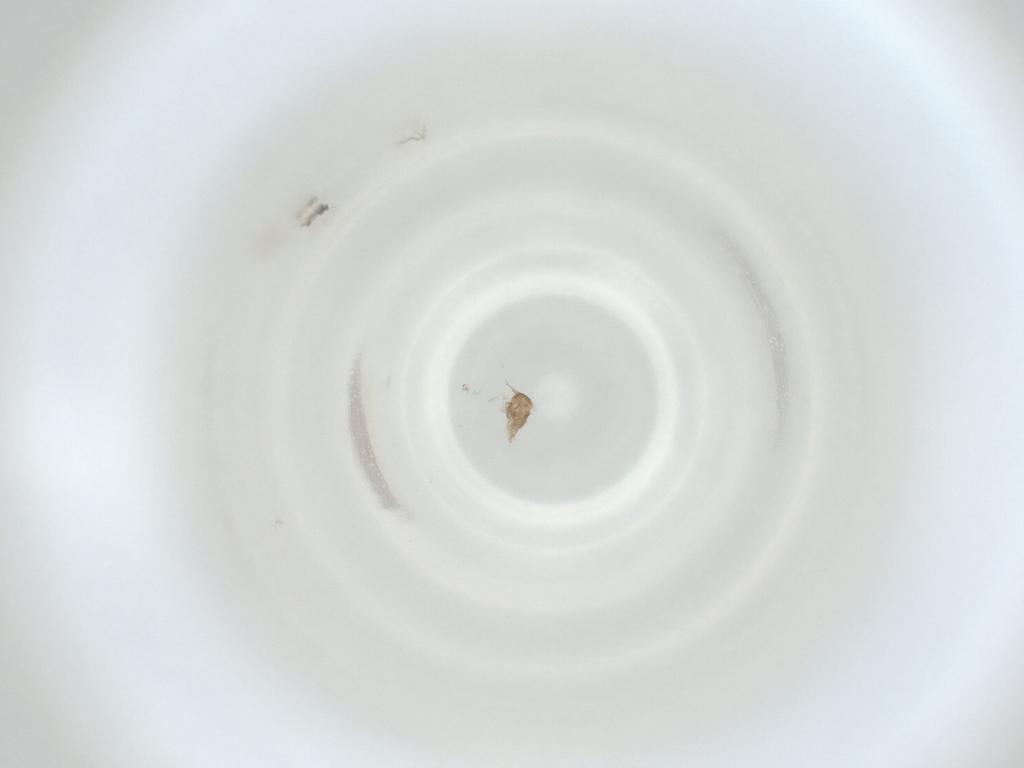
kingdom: Animalia
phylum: Arthropoda
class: Insecta
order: Diptera
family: Cecidomyiidae
